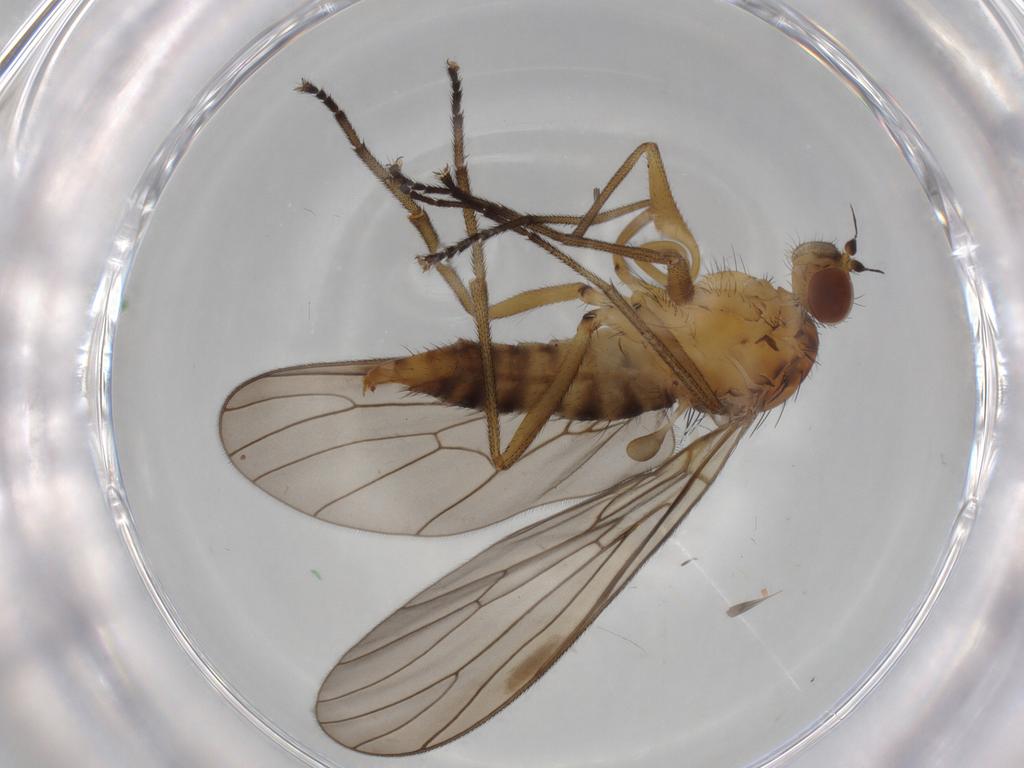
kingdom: Animalia
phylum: Arthropoda
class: Insecta
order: Diptera
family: Brachystomatidae
